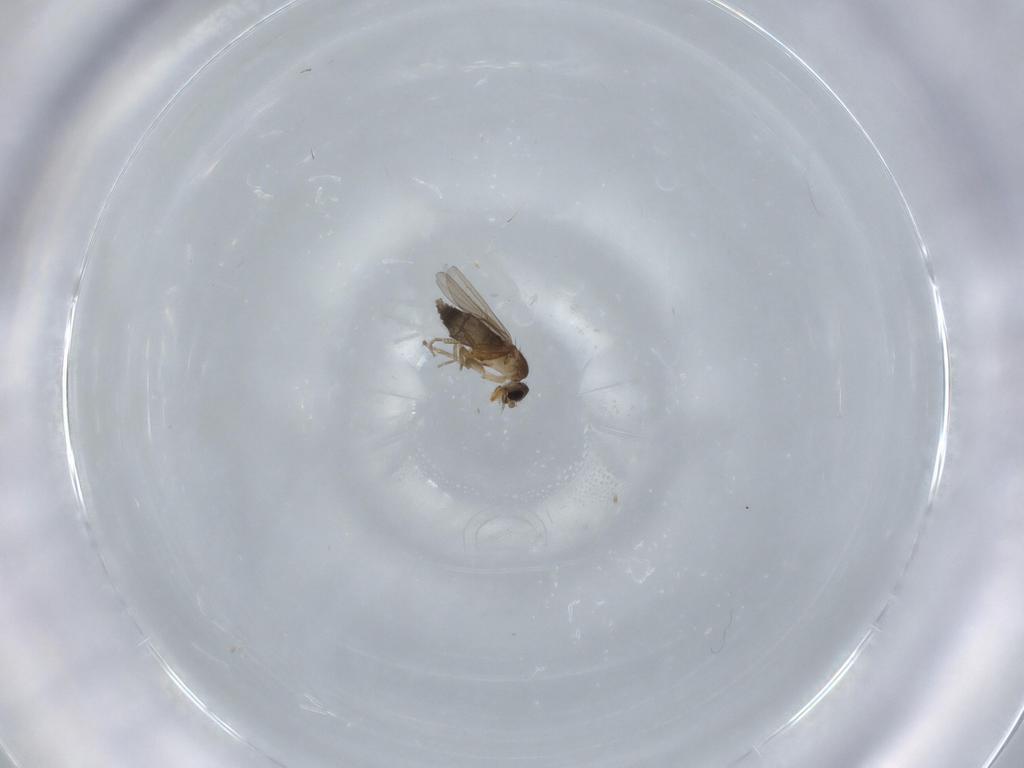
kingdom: Animalia
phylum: Arthropoda
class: Insecta
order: Diptera
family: Phoridae
